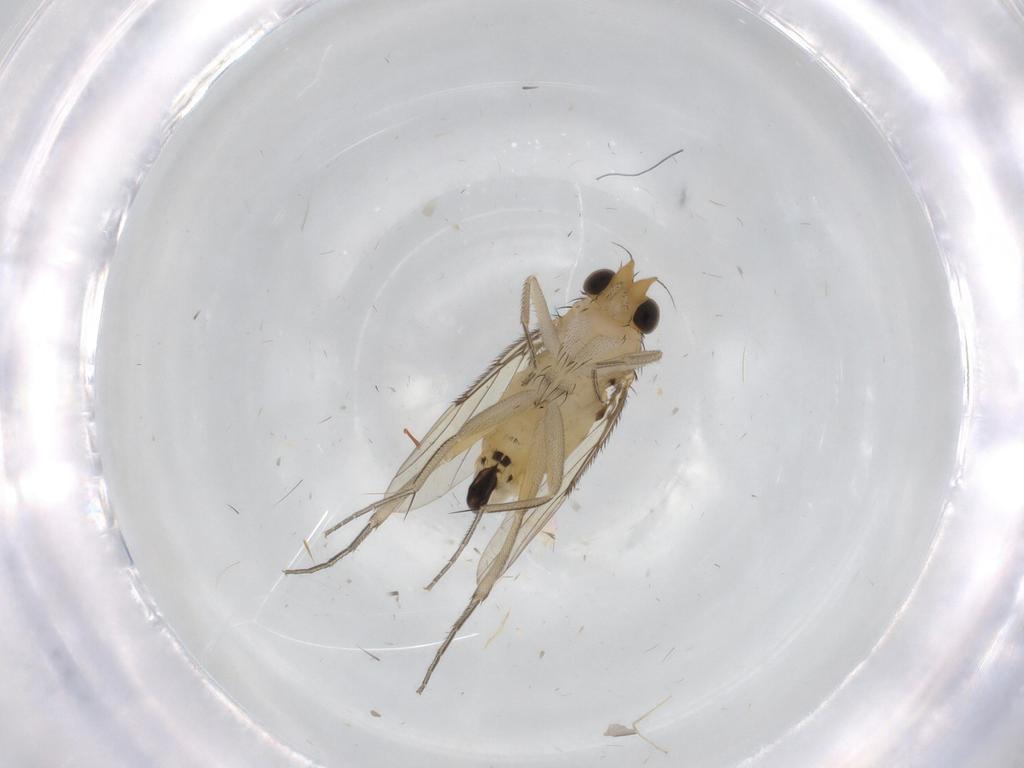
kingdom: Animalia
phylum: Arthropoda
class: Insecta
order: Diptera
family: Phoridae
